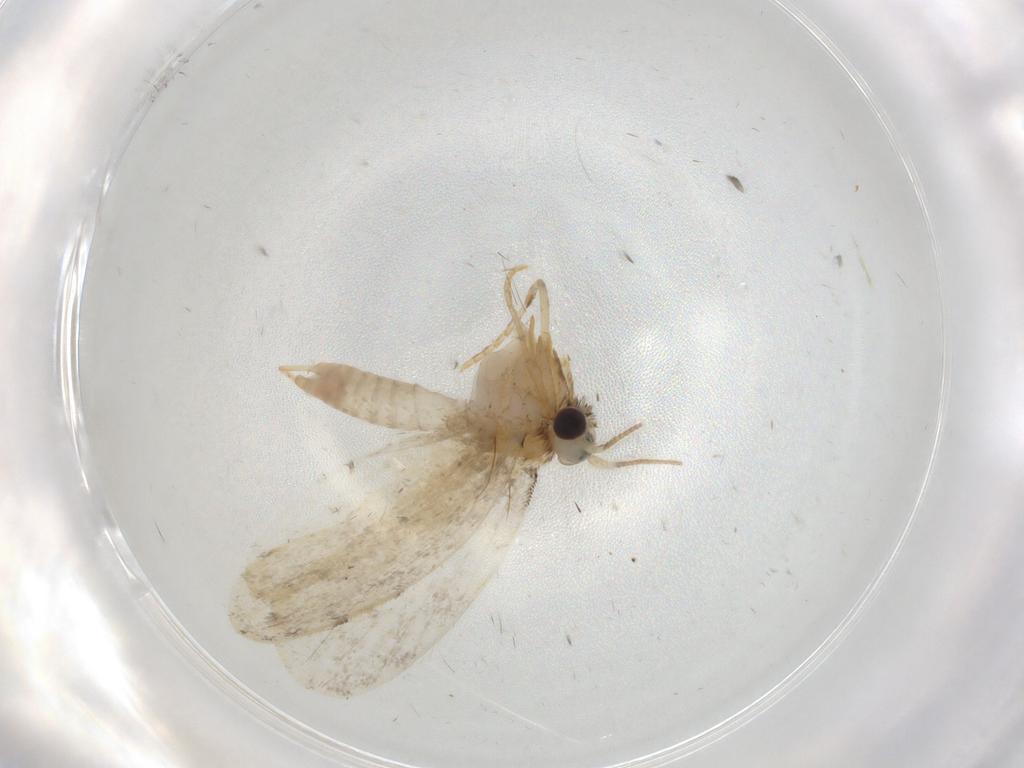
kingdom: Animalia
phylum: Arthropoda
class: Insecta
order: Lepidoptera
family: Psychidae
